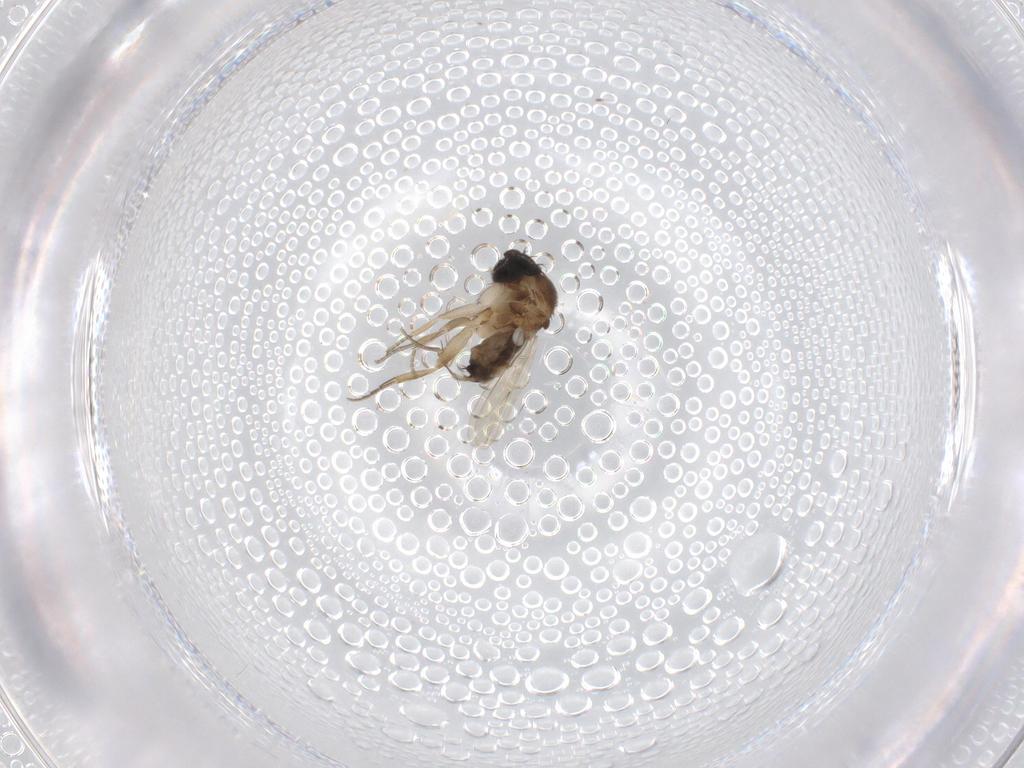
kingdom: Animalia
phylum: Arthropoda
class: Insecta
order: Diptera
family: Phoridae
